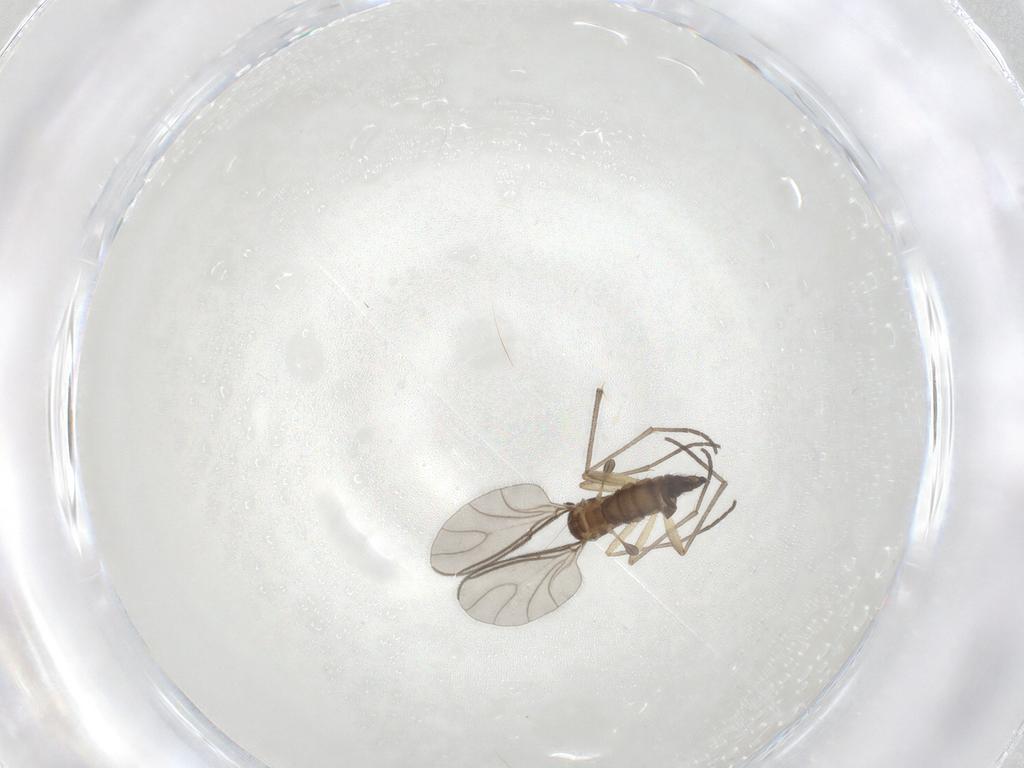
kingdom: Animalia
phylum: Arthropoda
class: Insecta
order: Diptera
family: Sciaridae
